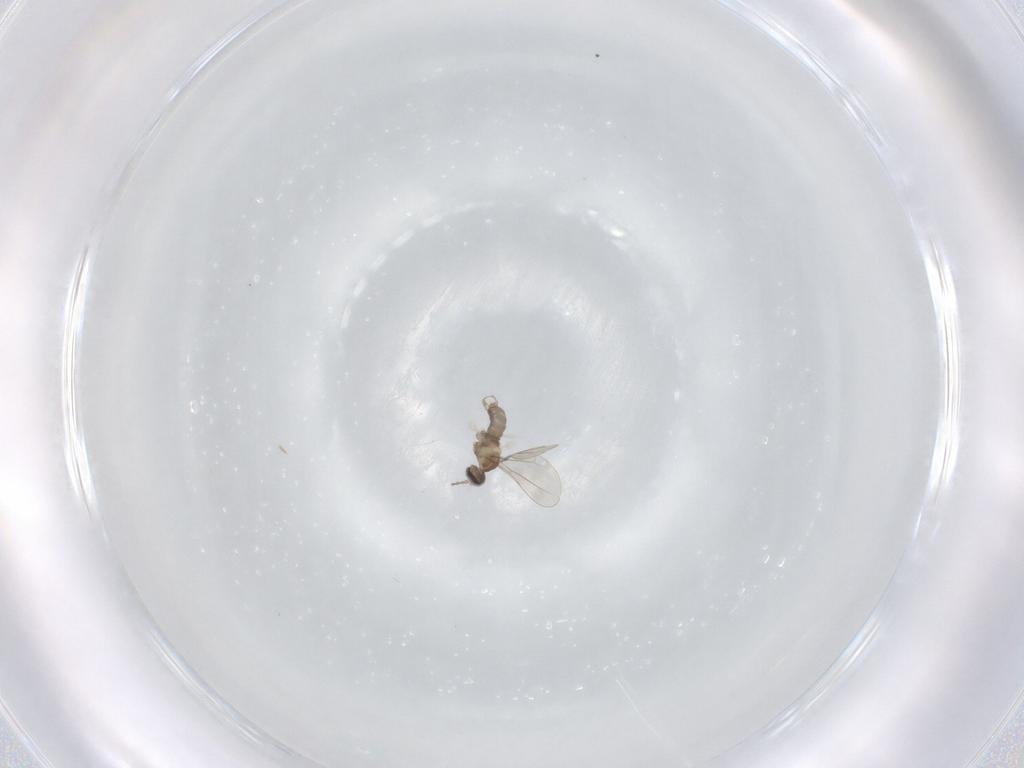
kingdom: Animalia
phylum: Arthropoda
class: Insecta
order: Diptera
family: Cecidomyiidae
